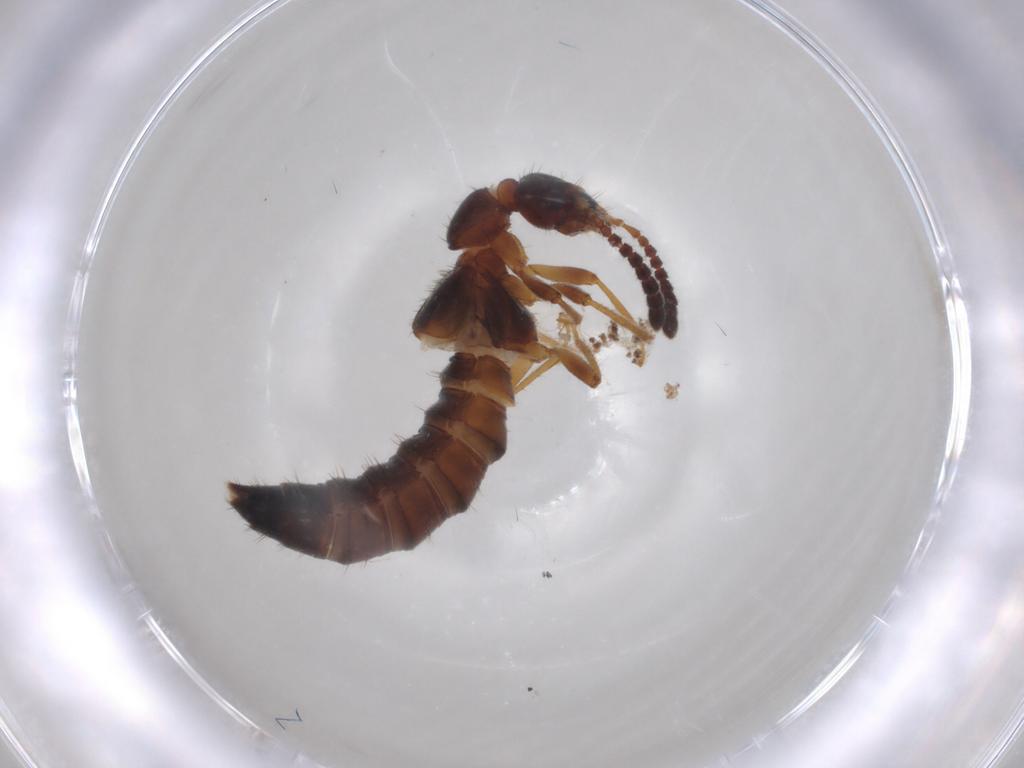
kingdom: Animalia
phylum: Arthropoda
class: Insecta
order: Coleoptera
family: Staphylinidae
